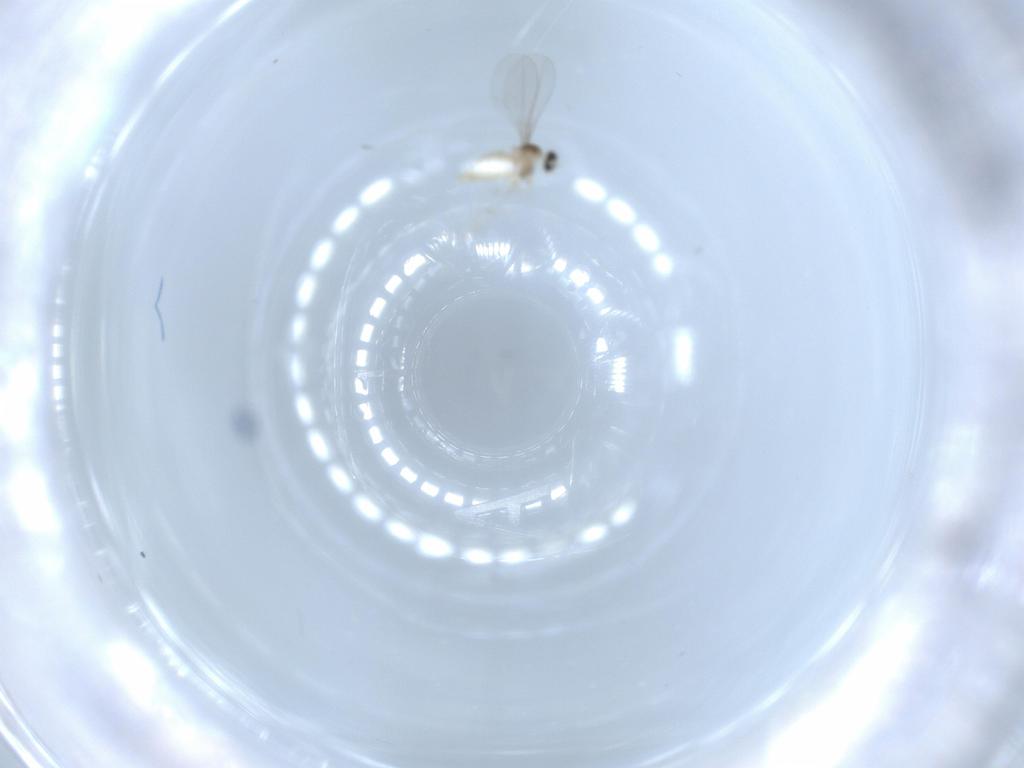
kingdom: Animalia
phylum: Arthropoda
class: Insecta
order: Diptera
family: Cecidomyiidae
